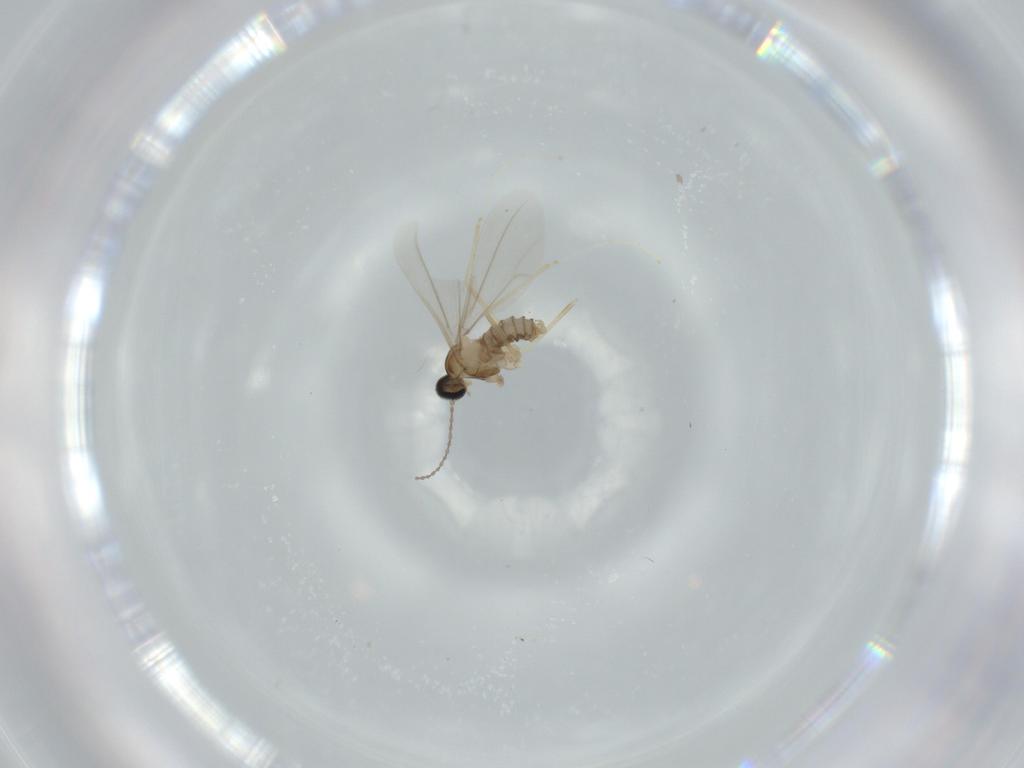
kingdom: Animalia
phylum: Arthropoda
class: Insecta
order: Diptera
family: Cecidomyiidae
